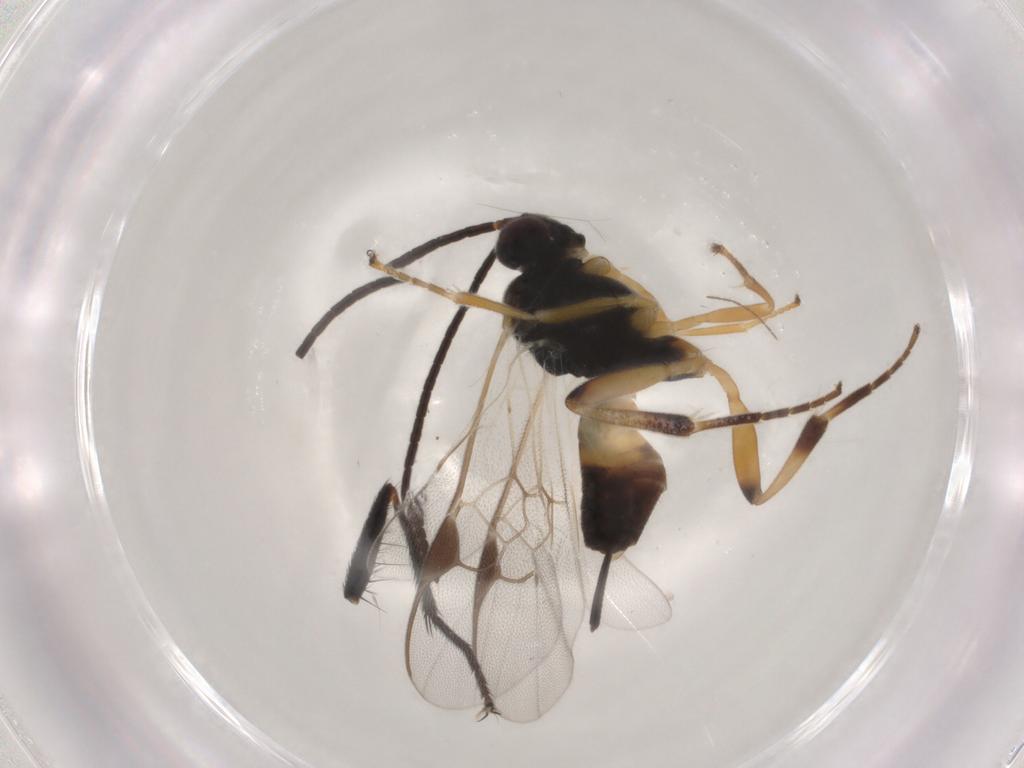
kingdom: Animalia
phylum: Arthropoda
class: Insecta
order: Hymenoptera
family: Braconidae
